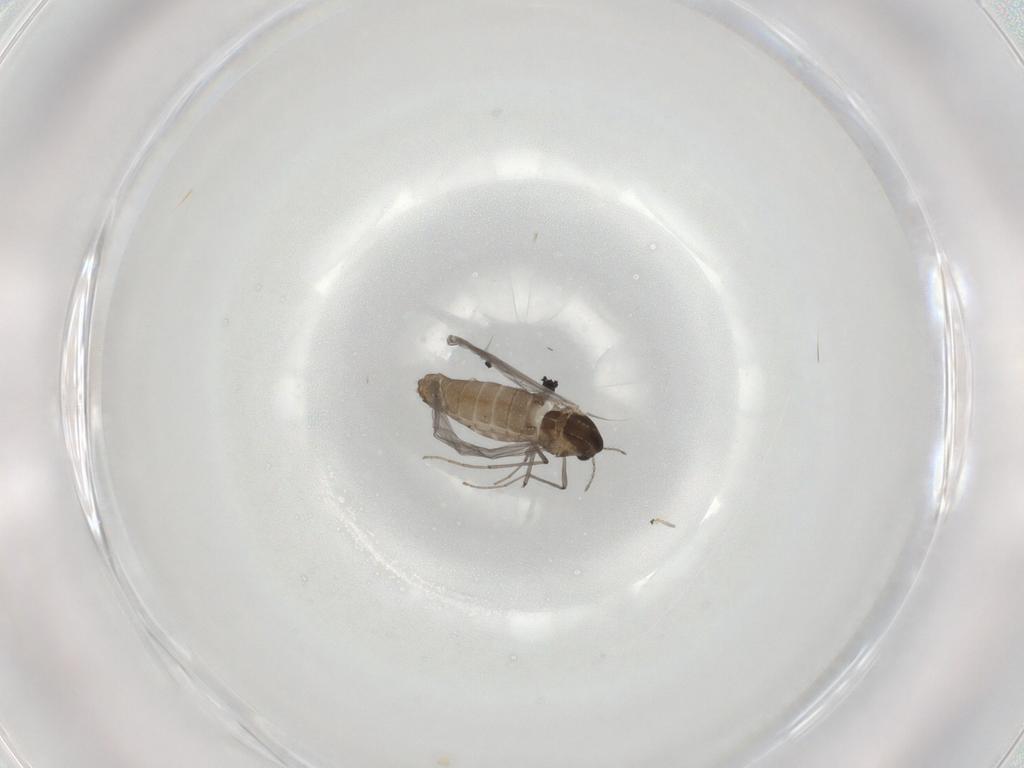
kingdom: Animalia
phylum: Arthropoda
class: Insecta
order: Diptera
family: Chironomidae
